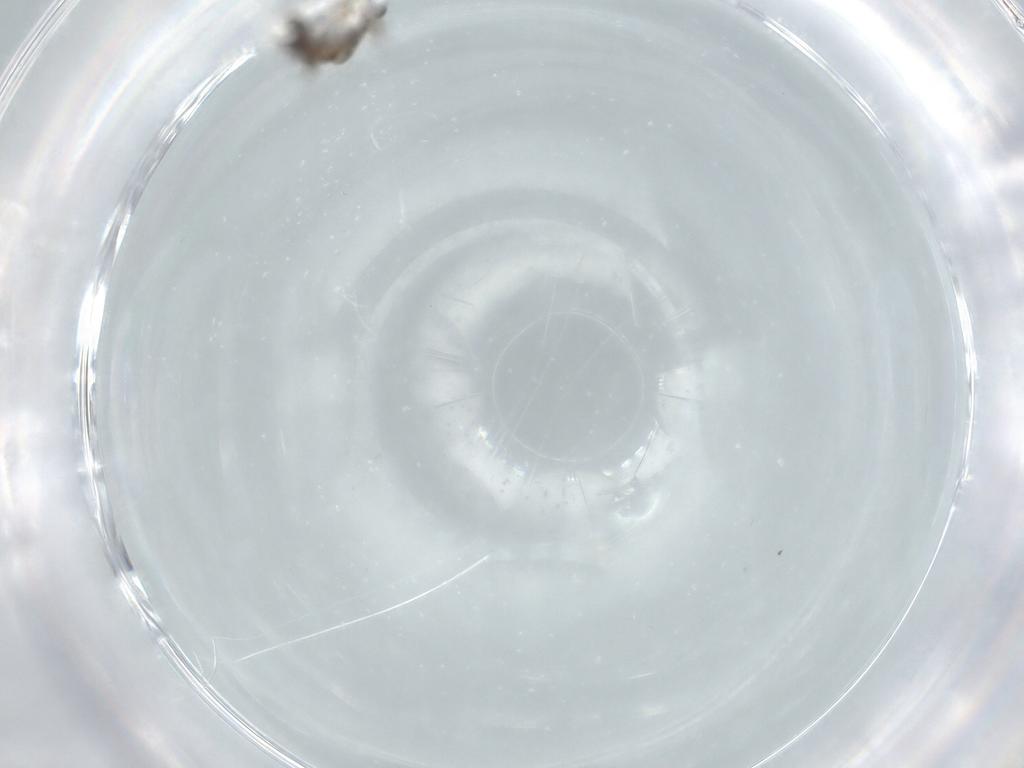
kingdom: Animalia
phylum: Arthropoda
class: Insecta
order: Diptera
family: Chironomidae
